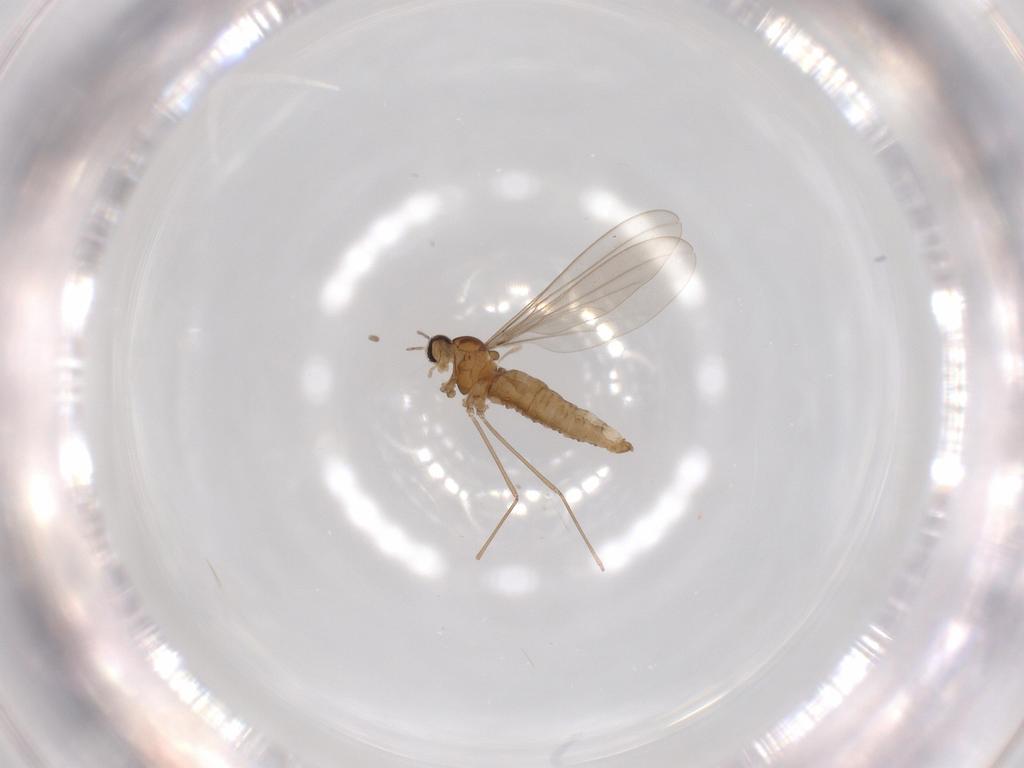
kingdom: Animalia
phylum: Arthropoda
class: Insecta
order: Diptera
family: Cecidomyiidae
